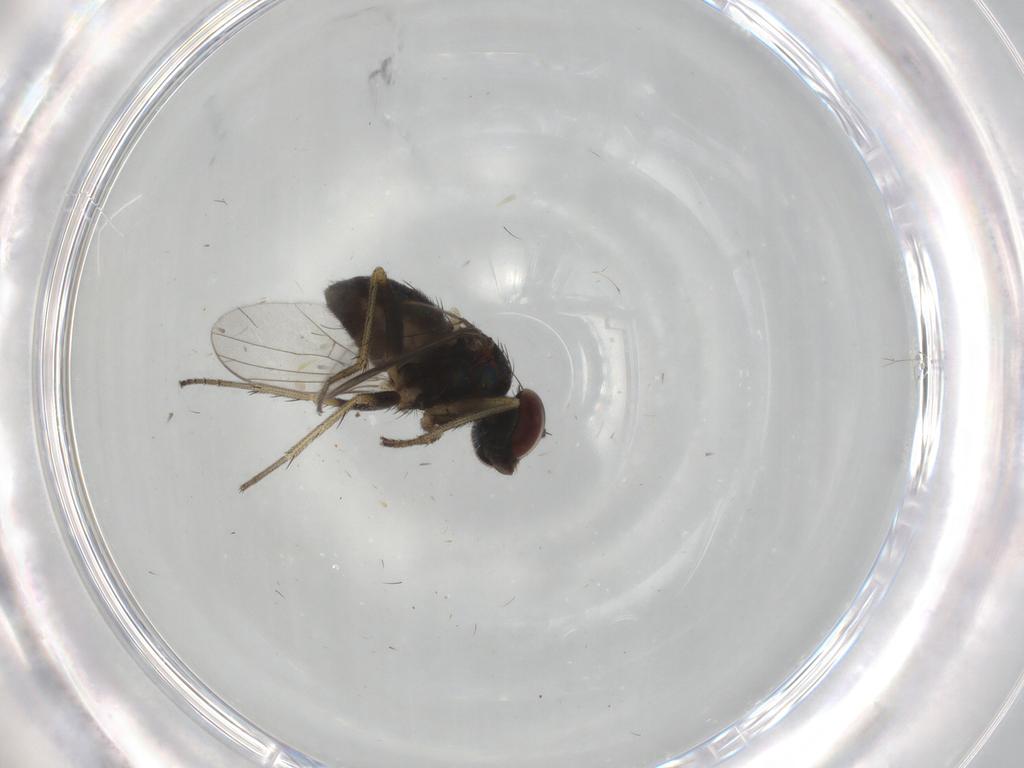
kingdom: Animalia
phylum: Arthropoda
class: Insecta
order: Diptera
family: Dolichopodidae
